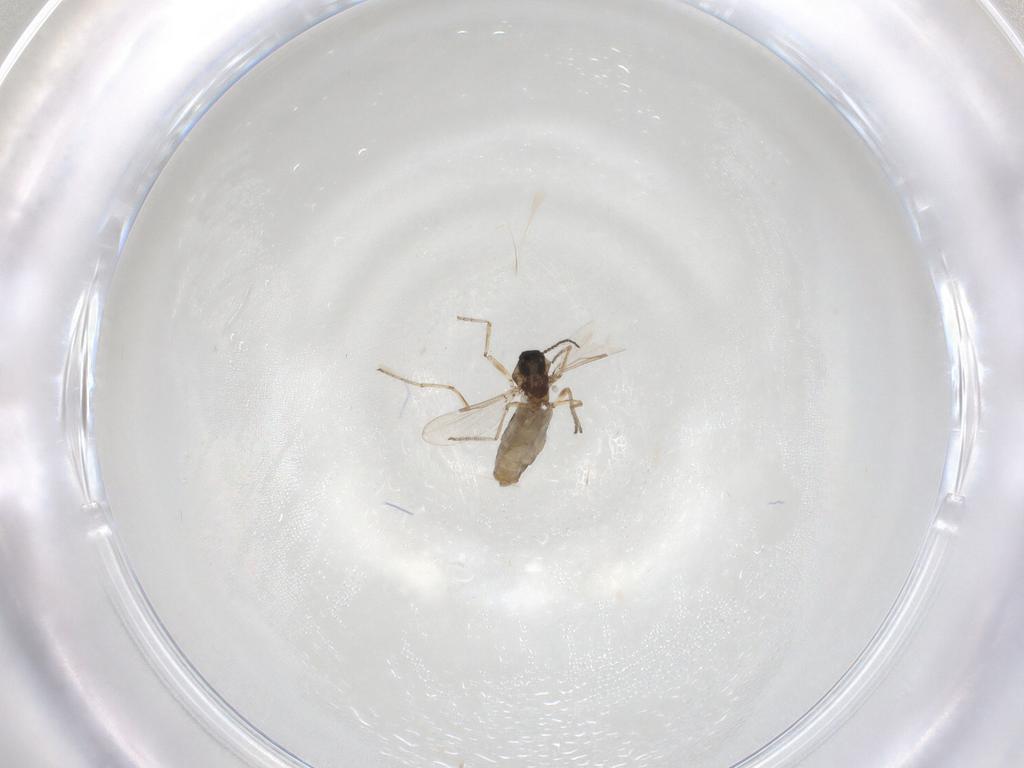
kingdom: Animalia
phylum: Arthropoda
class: Insecta
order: Diptera
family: Ceratopogonidae
